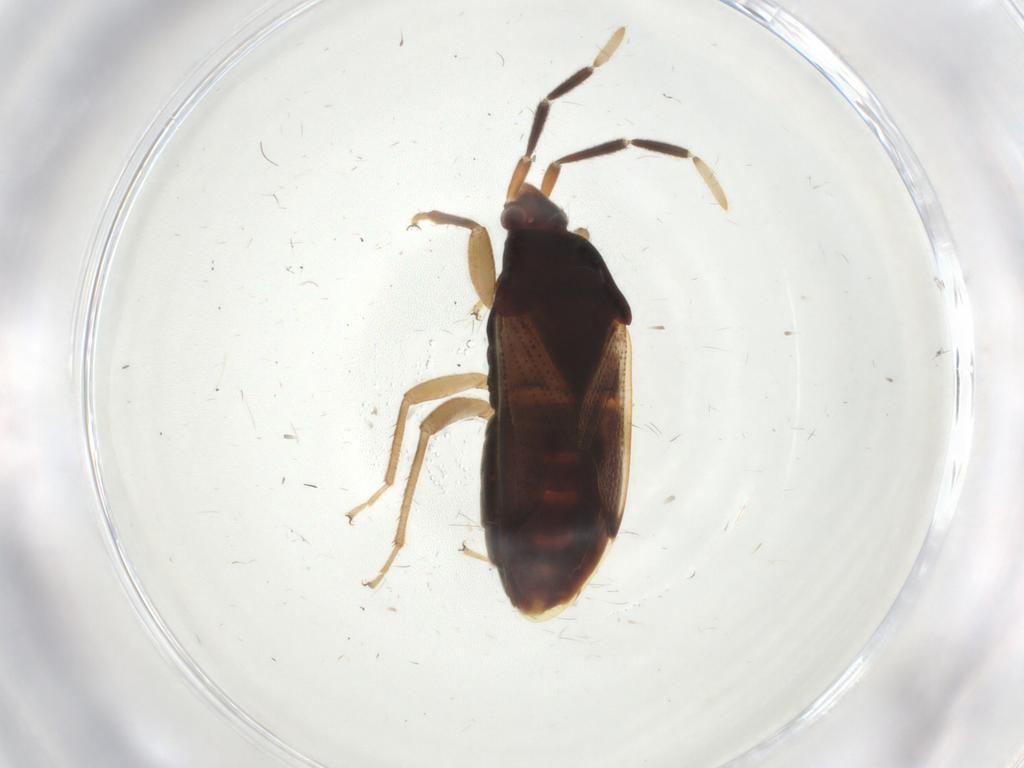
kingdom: Animalia
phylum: Arthropoda
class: Insecta
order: Hemiptera
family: Rhyparochromidae
